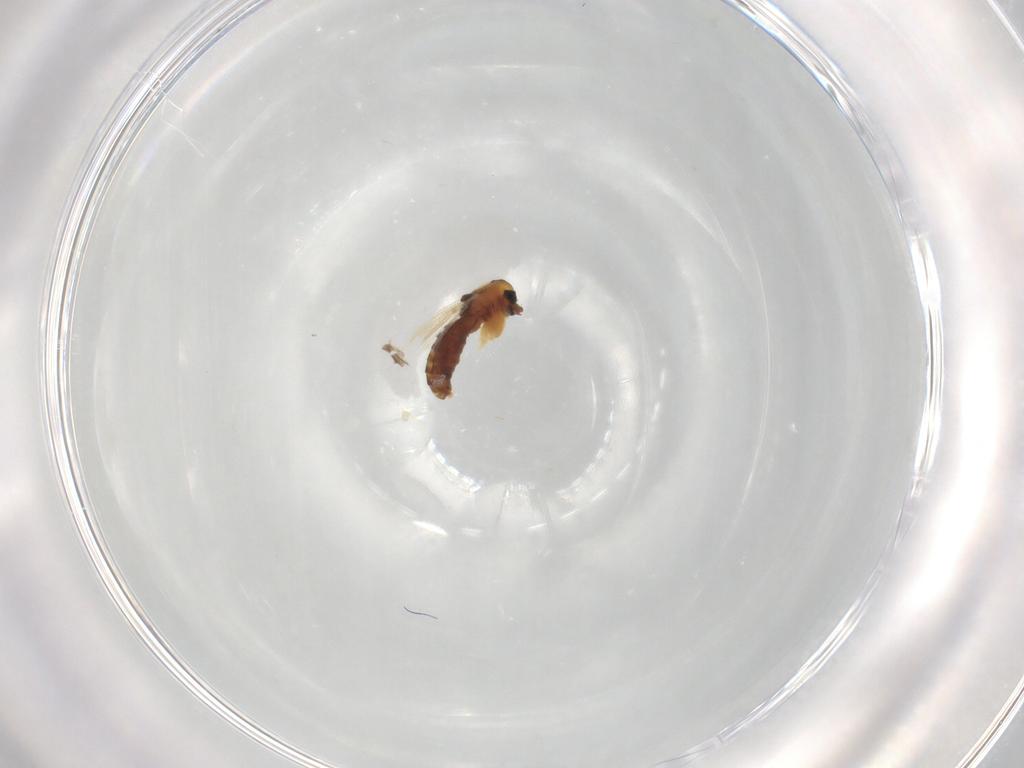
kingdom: Animalia
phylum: Arthropoda
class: Insecta
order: Diptera
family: Chironomidae
